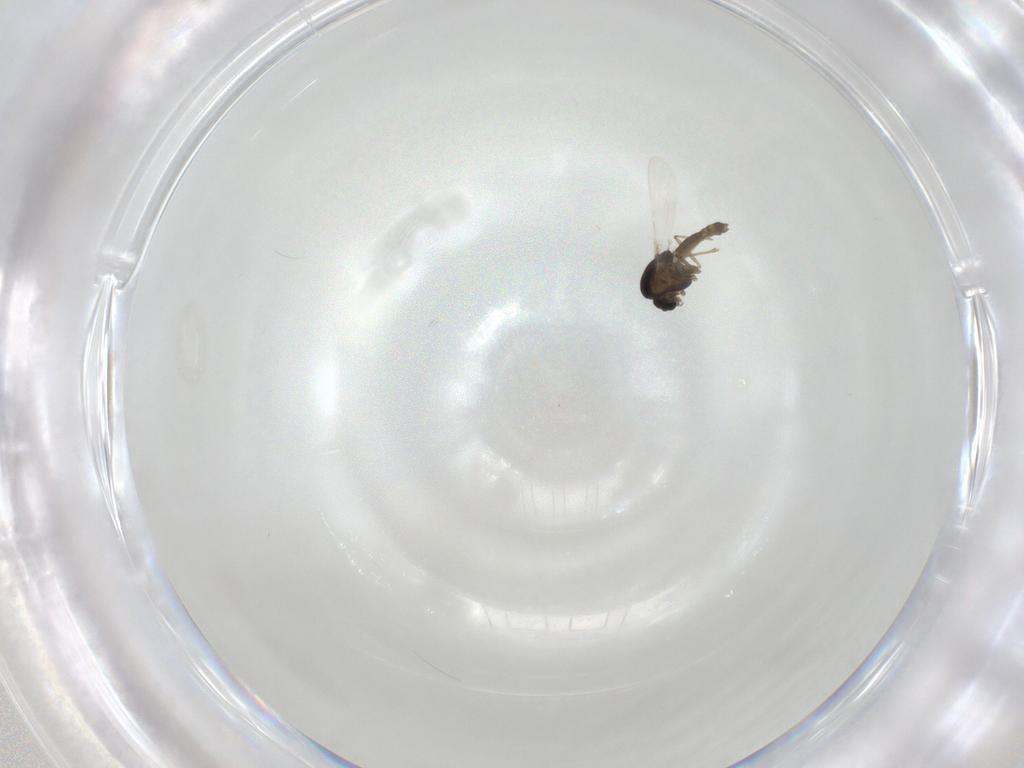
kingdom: Animalia
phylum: Arthropoda
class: Insecta
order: Diptera
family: Chironomidae
